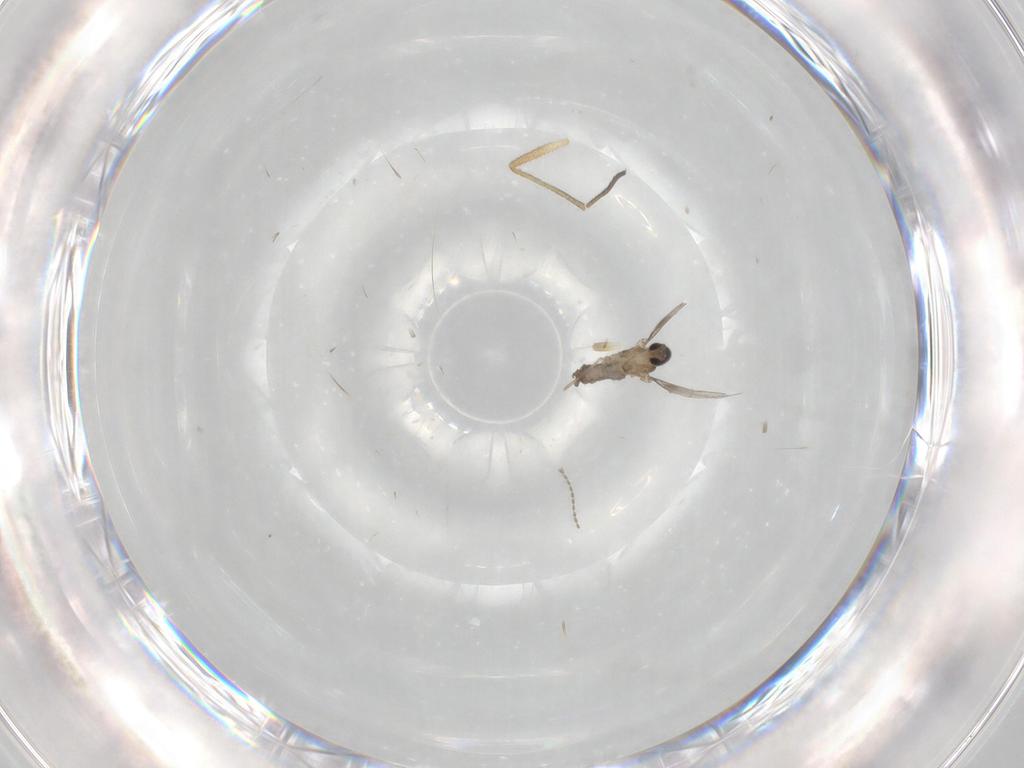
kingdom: Animalia
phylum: Arthropoda
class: Insecta
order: Diptera
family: Cecidomyiidae
